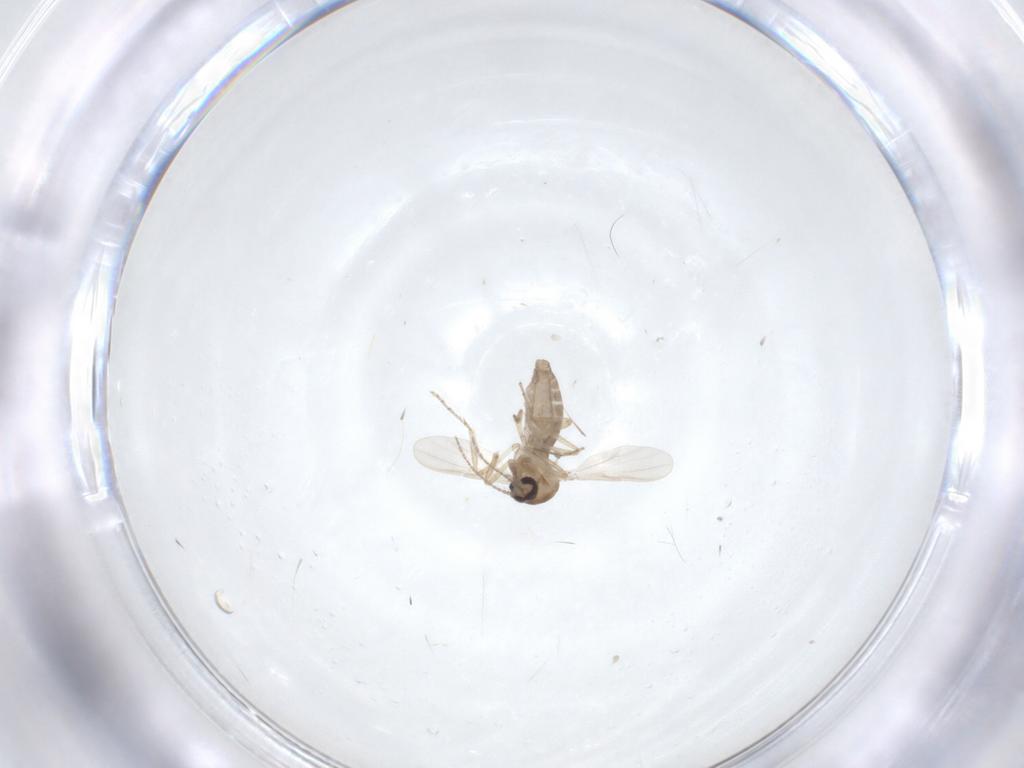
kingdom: Animalia
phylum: Arthropoda
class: Insecta
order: Diptera
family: Ceratopogonidae
